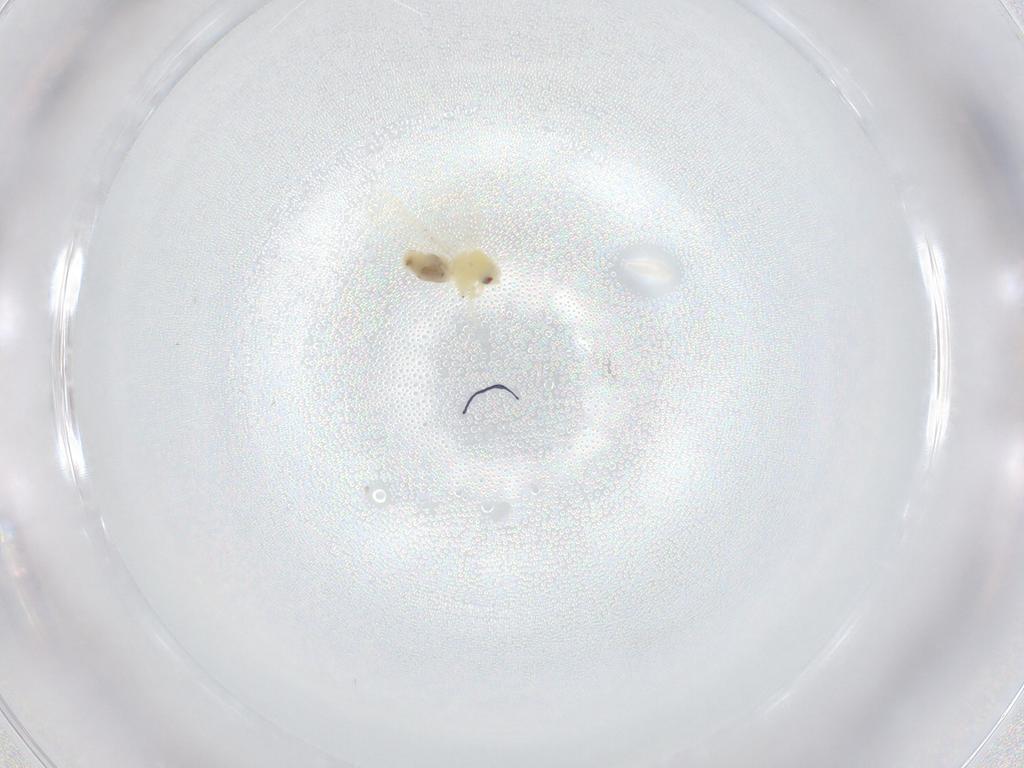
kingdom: Animalia
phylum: Arthropoda
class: Insecta
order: Hemiptera
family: Aleyrodidae
